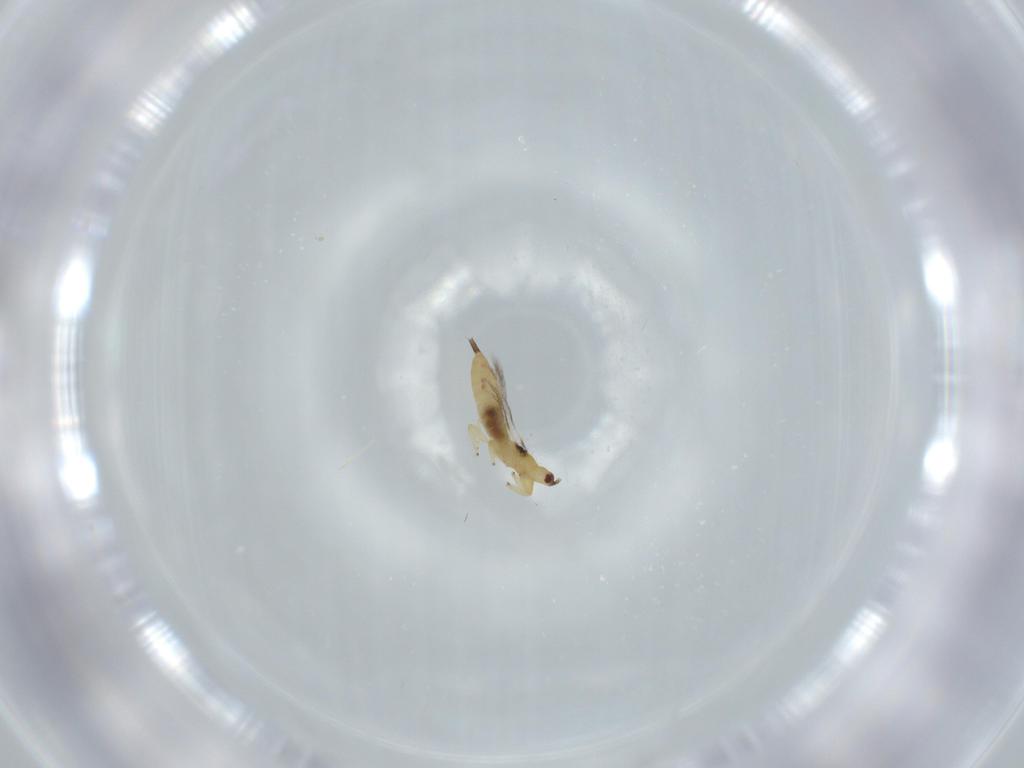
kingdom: Animalia
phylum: Arthropoda
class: Insecta
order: Thysanoptera
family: Phlaeothripidae
